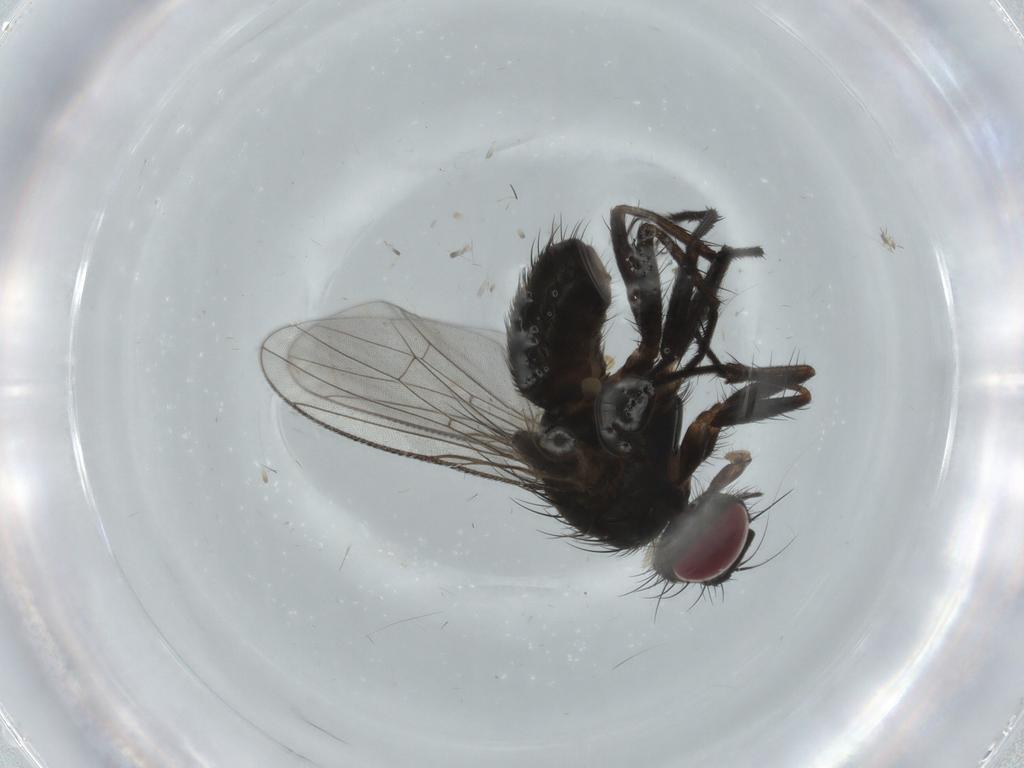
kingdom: Animalia
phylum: Arthropoda
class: Insecta
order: Diptera
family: Muscidae
